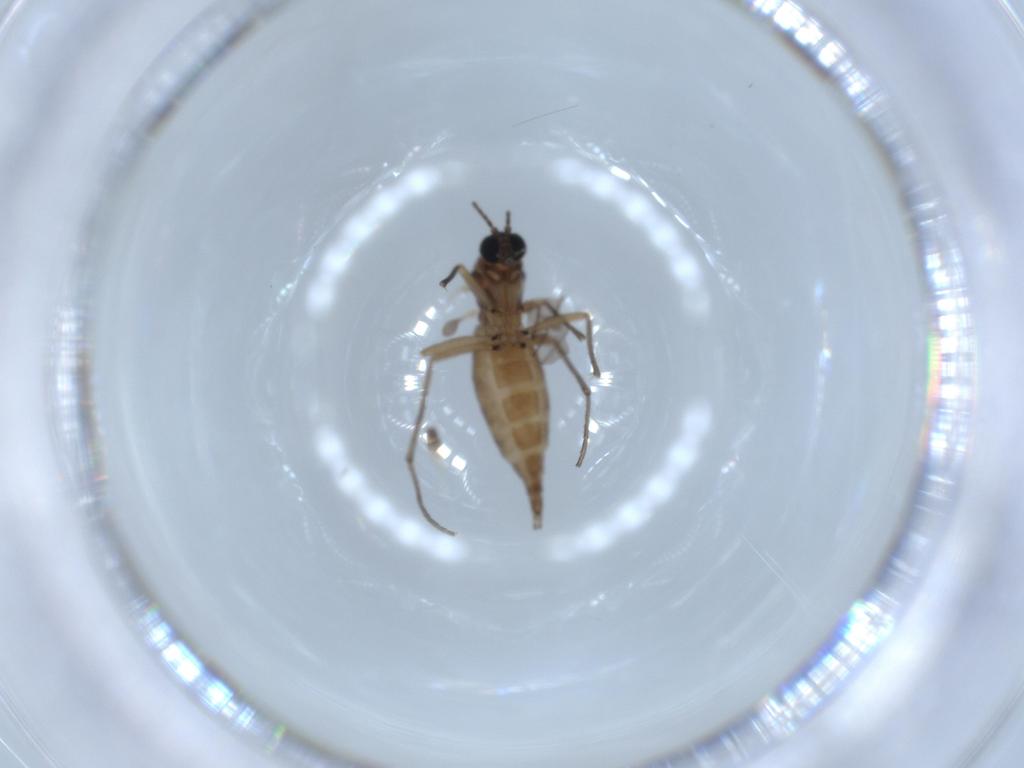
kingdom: Animalia
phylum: Arthropoda
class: Insecta
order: Diptera
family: Sciaridae
